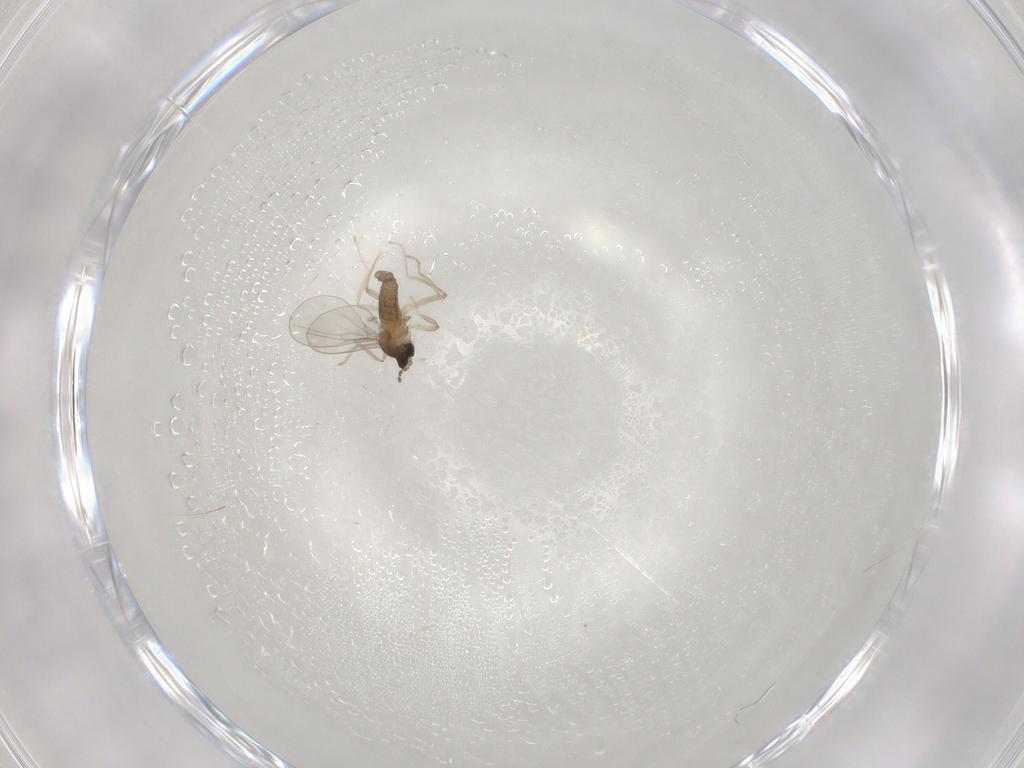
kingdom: Animalia
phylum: Arthropoda
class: Insecta
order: Diptera
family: Cecidomyiidae
